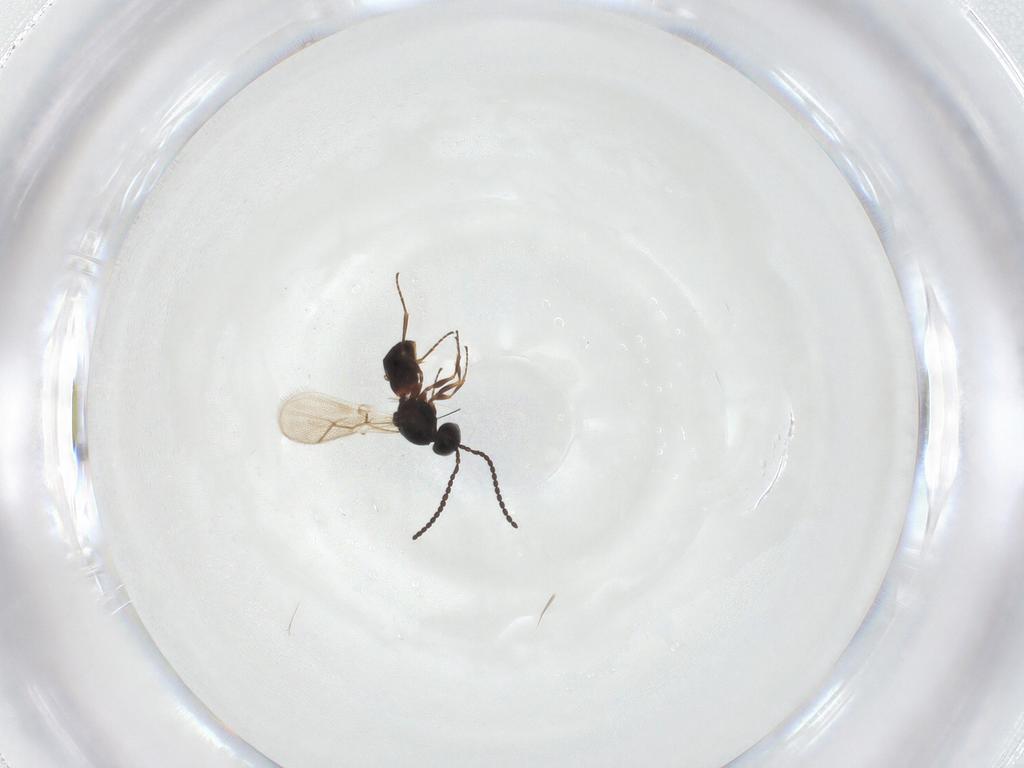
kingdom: Animalia
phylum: Arthropoda
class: Insecta
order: Hymenoptera
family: Figitidae
